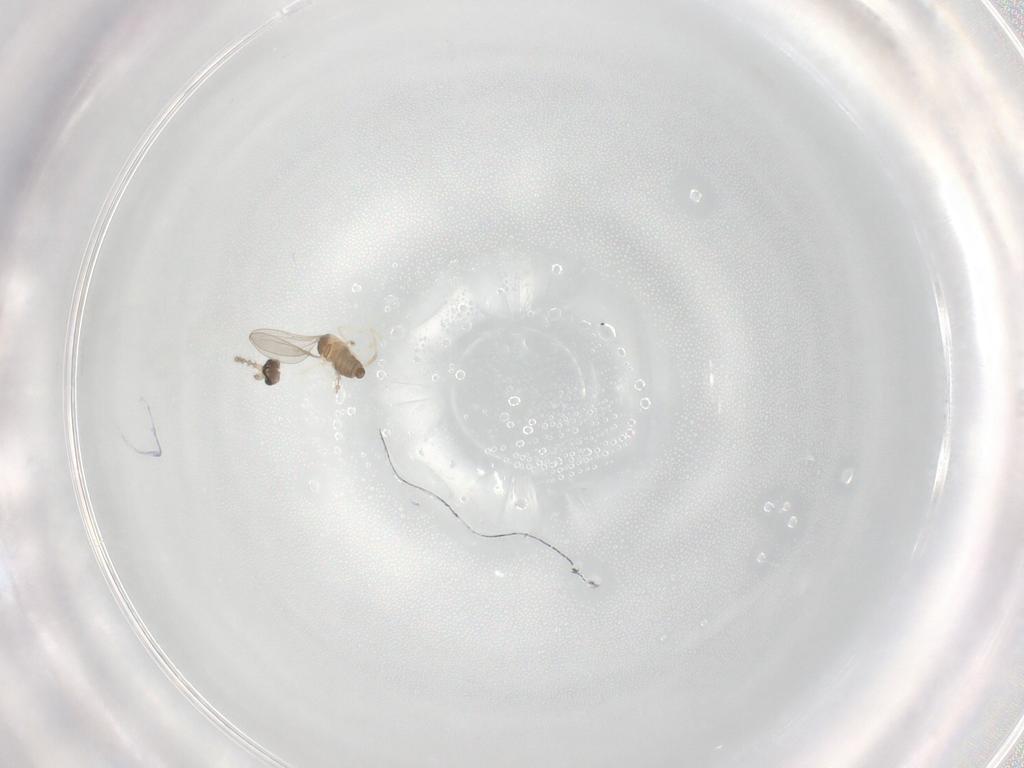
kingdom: Animalia
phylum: Arthropoda
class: Insecta
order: Diptera
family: Cecidomyiidae
